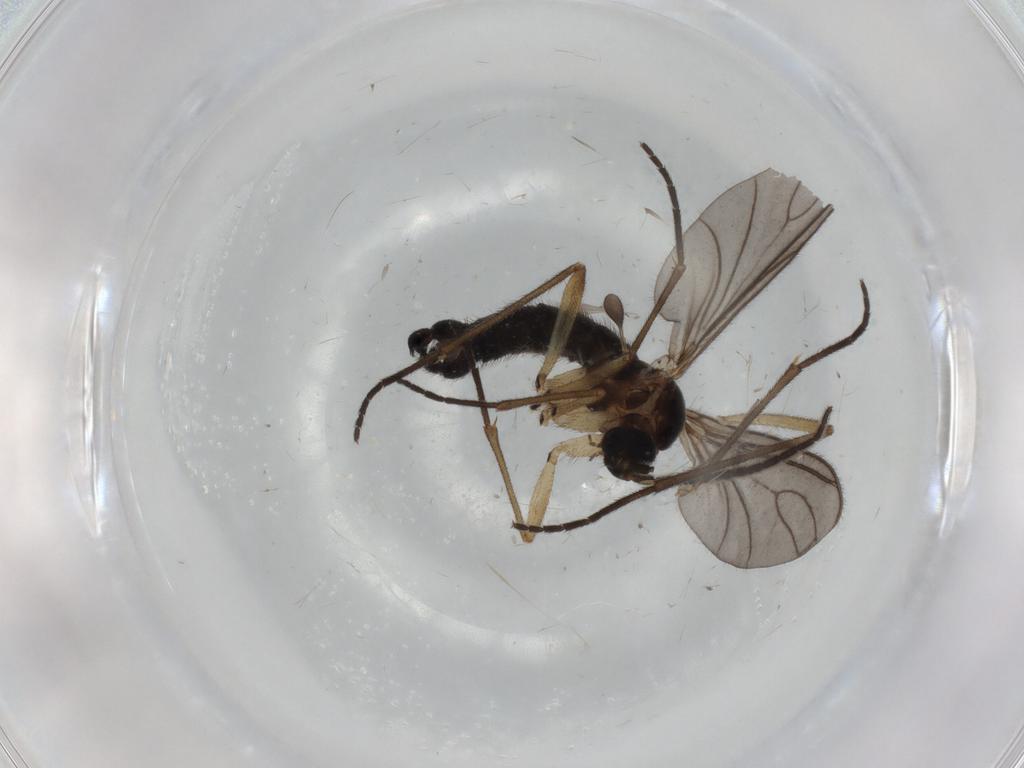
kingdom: Animalia
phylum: Arthropoda
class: Insecta
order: Diptera
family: Sciaridae
